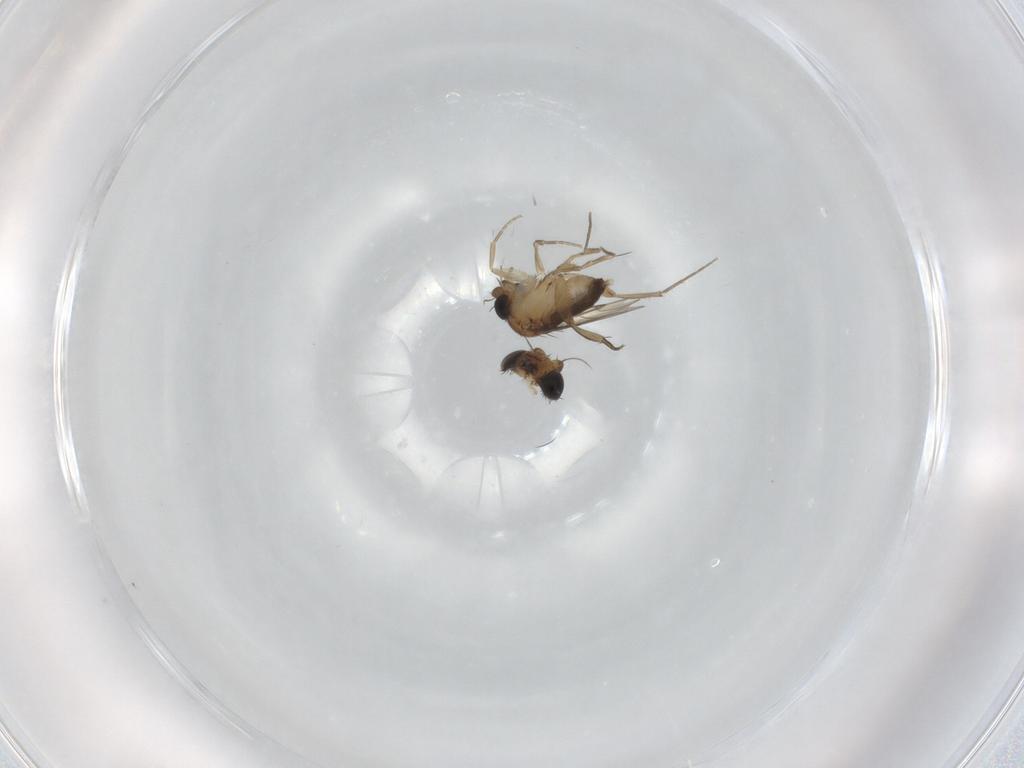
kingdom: Animalia
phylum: Arthropoda
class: Insecta
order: Diptera
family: Phoridae
